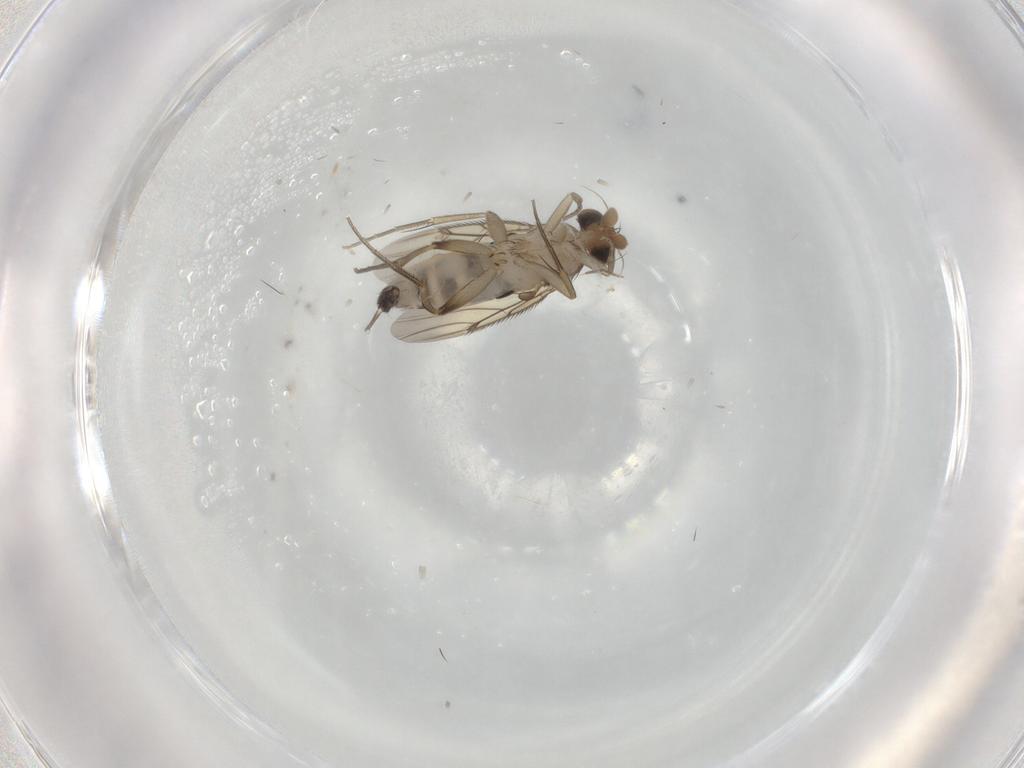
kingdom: Animalia
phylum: Arthropoda
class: Insecta
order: Diptera
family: Phoridae
